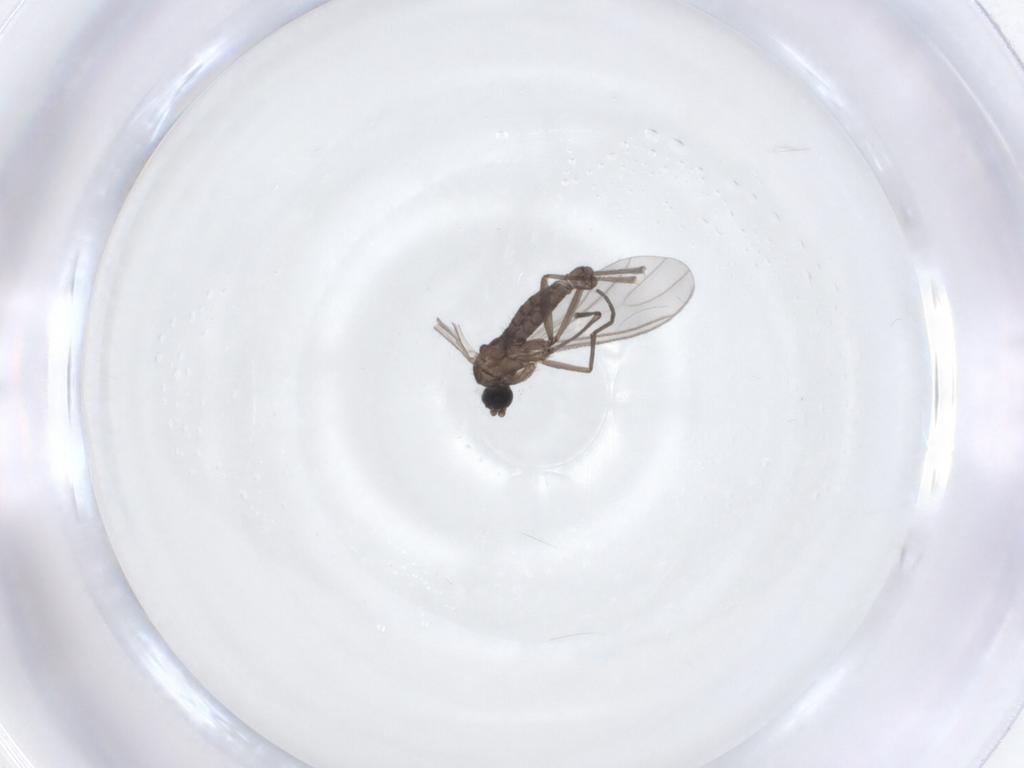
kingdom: Animalia
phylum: Arthropoda
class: Insecta
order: Diptera
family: Sciaridae
